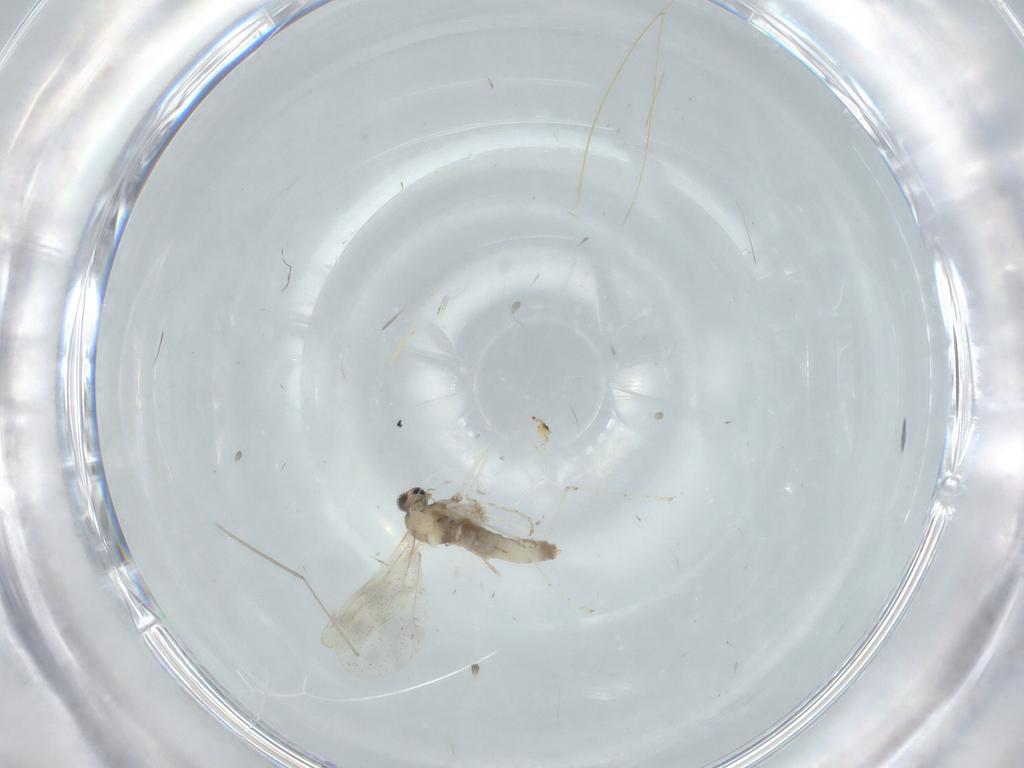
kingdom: Animalia
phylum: Arthropoda
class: Insecta
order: Diptera
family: Cecidomyiidae
